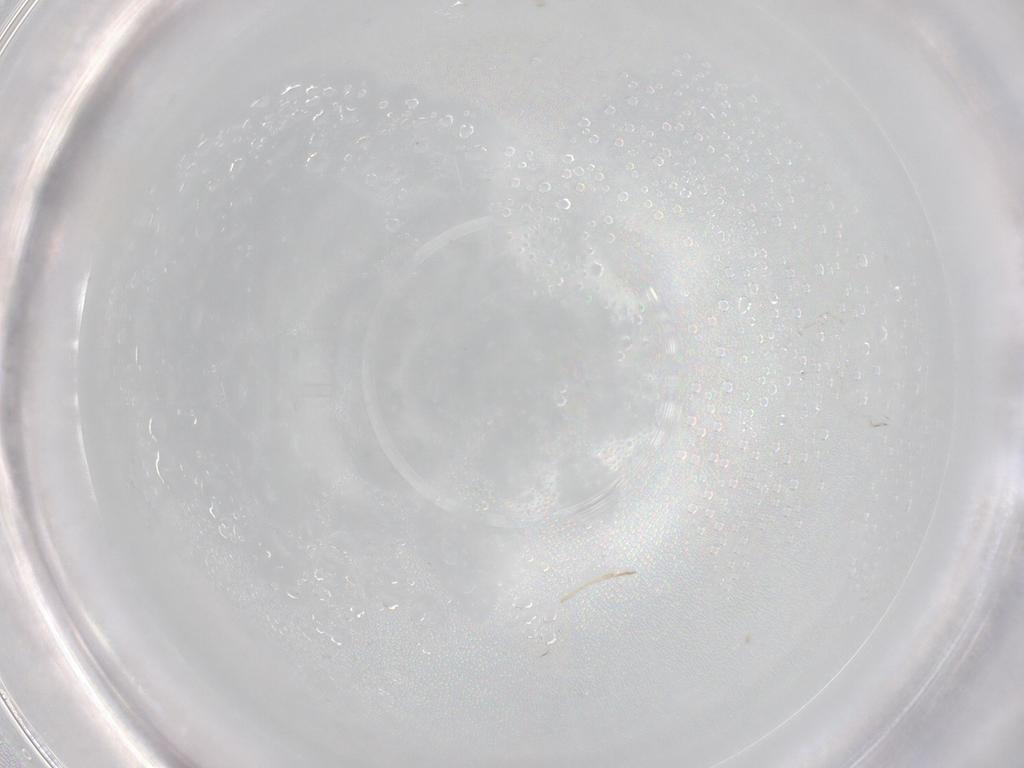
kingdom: Animalia
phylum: Arthropoda
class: Collembola
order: Entomobryomorpha
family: Entomobryidae
